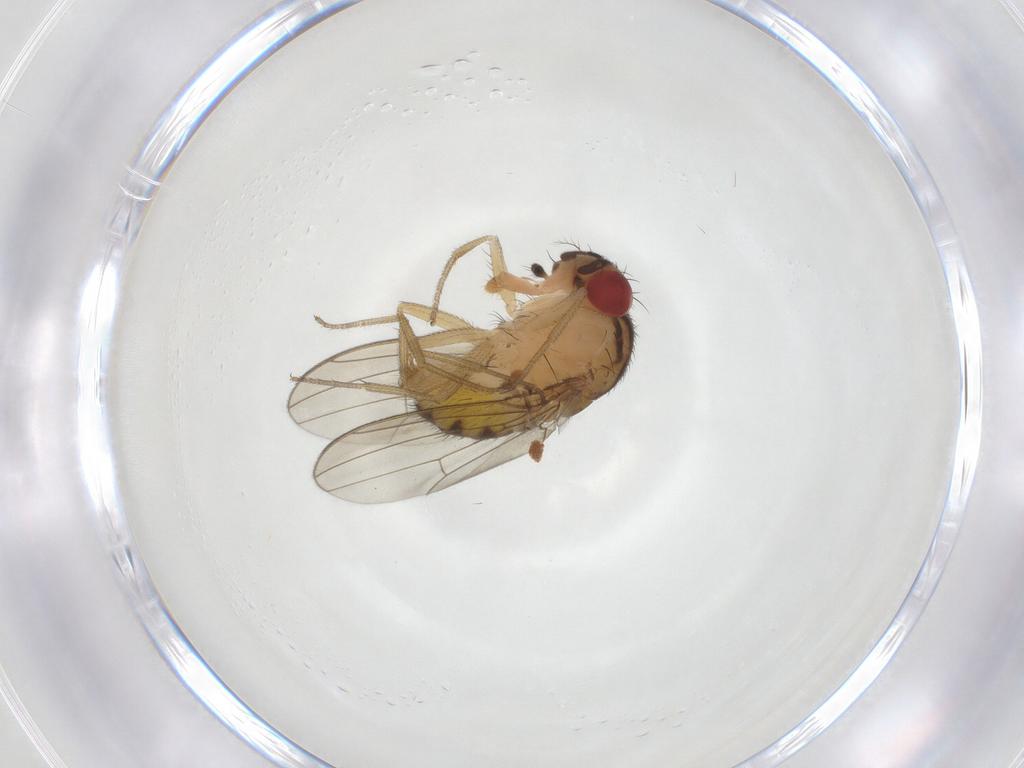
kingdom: Animalia
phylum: Arthropoda
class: Insecta
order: Diptera
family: Drosophilidae
